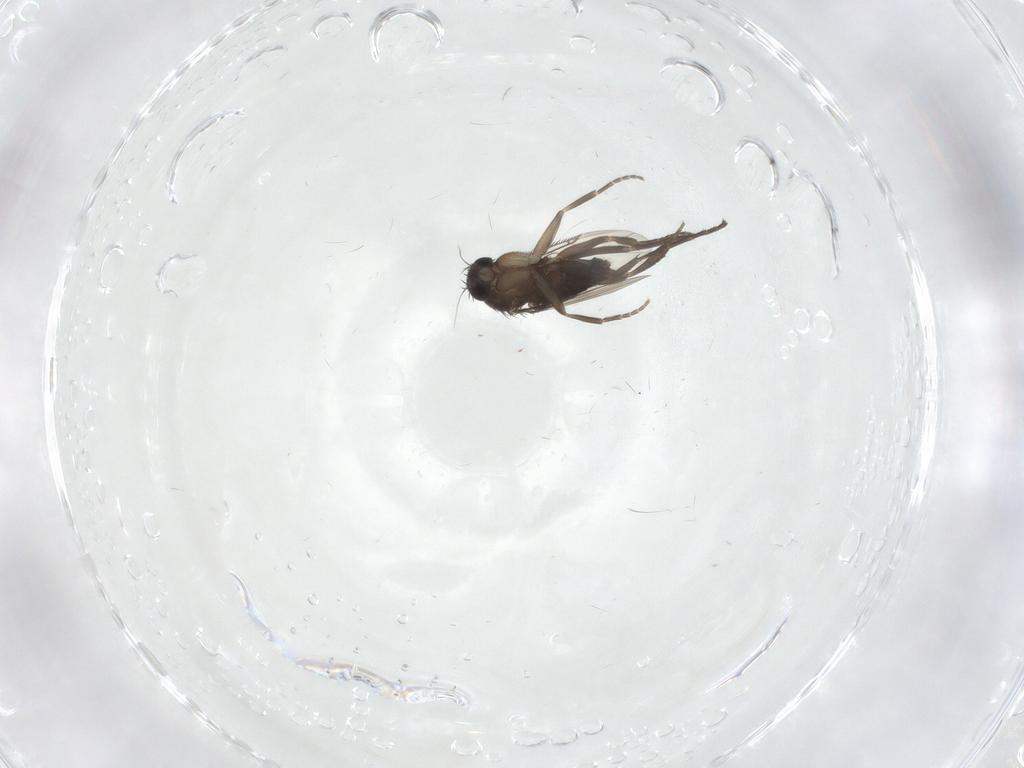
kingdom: Animalia
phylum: Arthropoda
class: Insecta
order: Diptera
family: Phoridae
